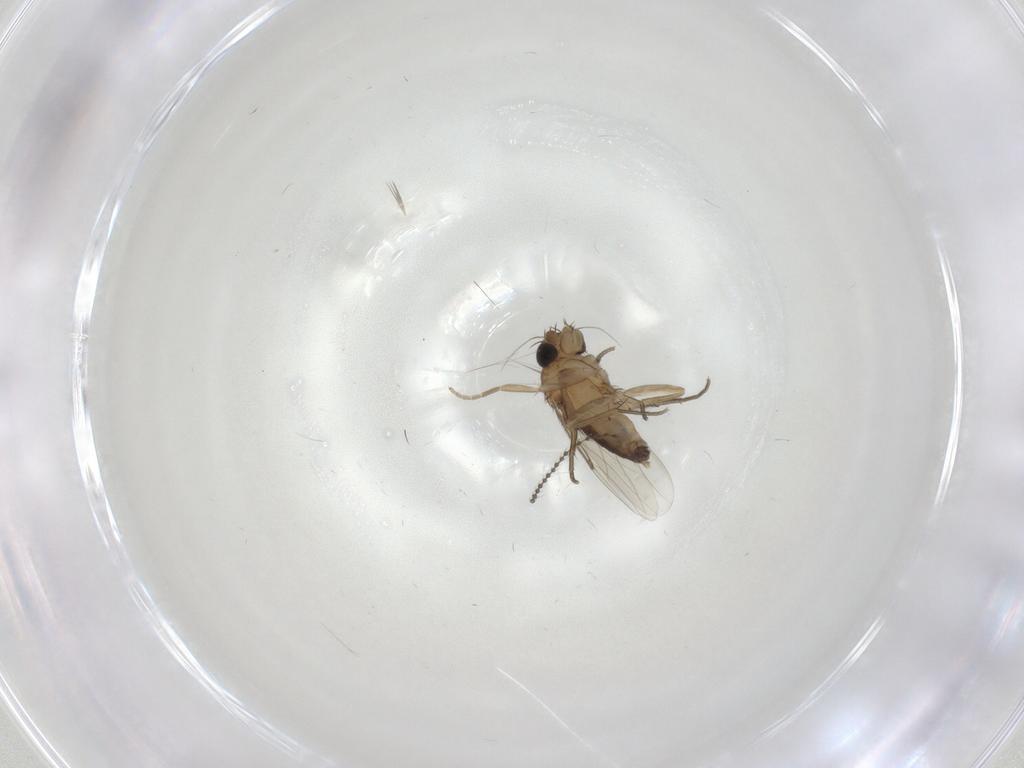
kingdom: Animalia
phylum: Arthropoda
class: Insecta
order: Diptera
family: Phoridae
